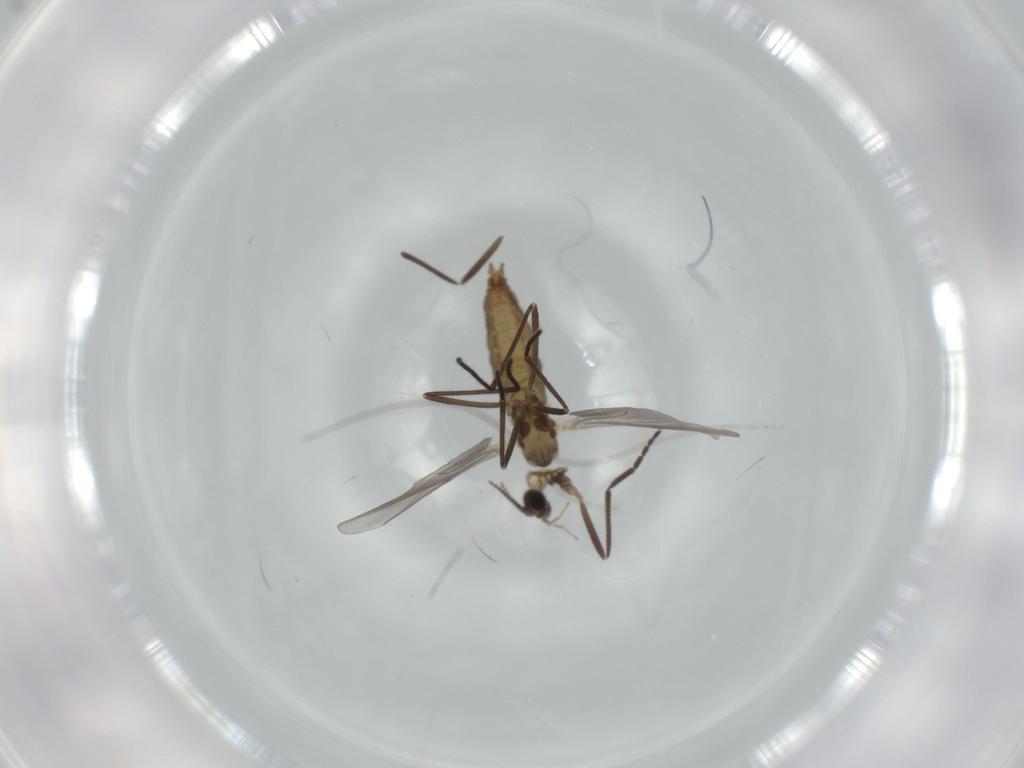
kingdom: Animalia
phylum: Arthropoda
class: Insecta
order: Diptera
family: Cecidomyiidae
